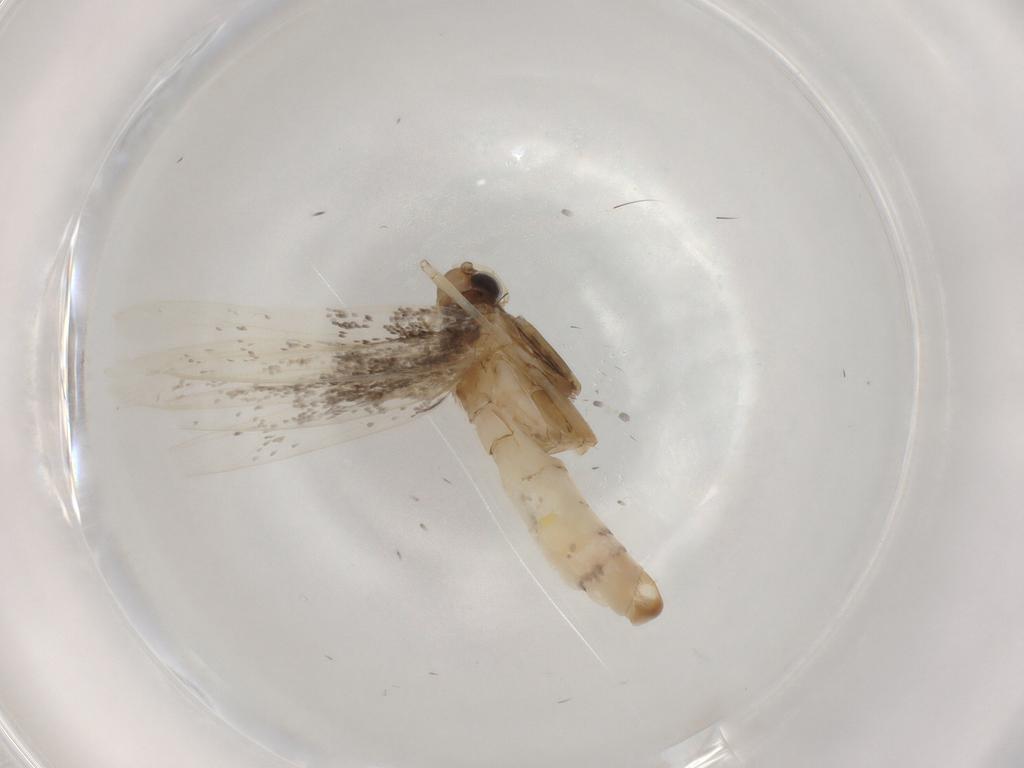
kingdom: Animalia
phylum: Arthropoda
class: Insecta
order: Lepidoptera
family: Gracillariidae
